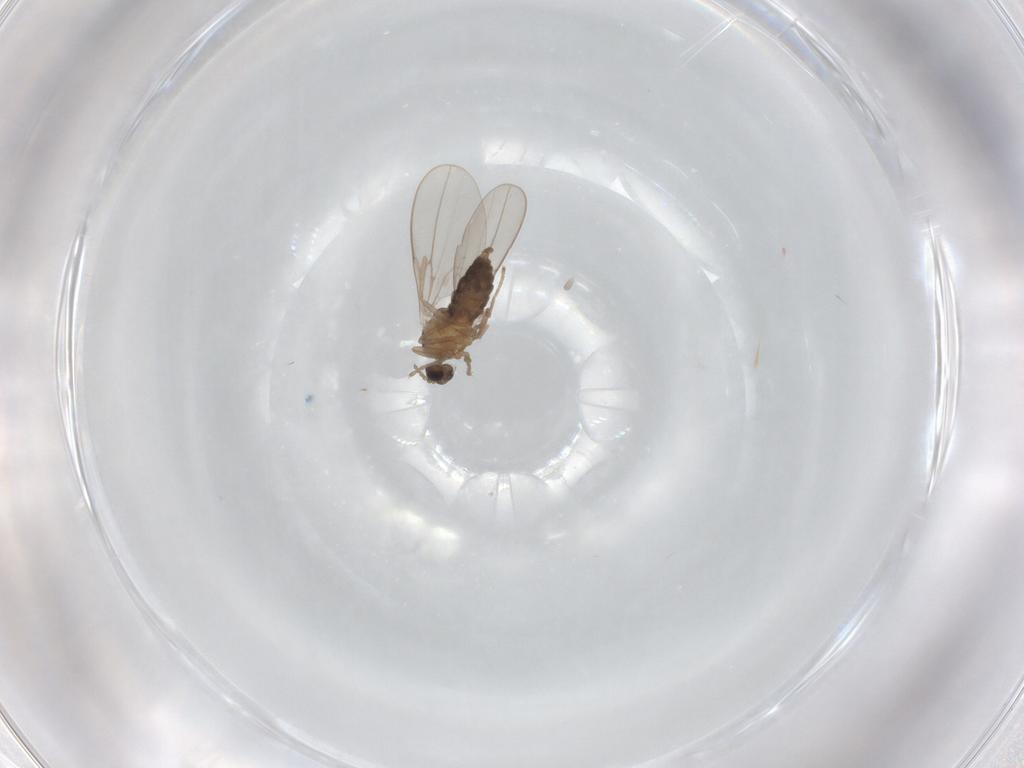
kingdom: Animalia
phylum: Arthropoda
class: Insecta
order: Diptera
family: Cecidomyiidae
